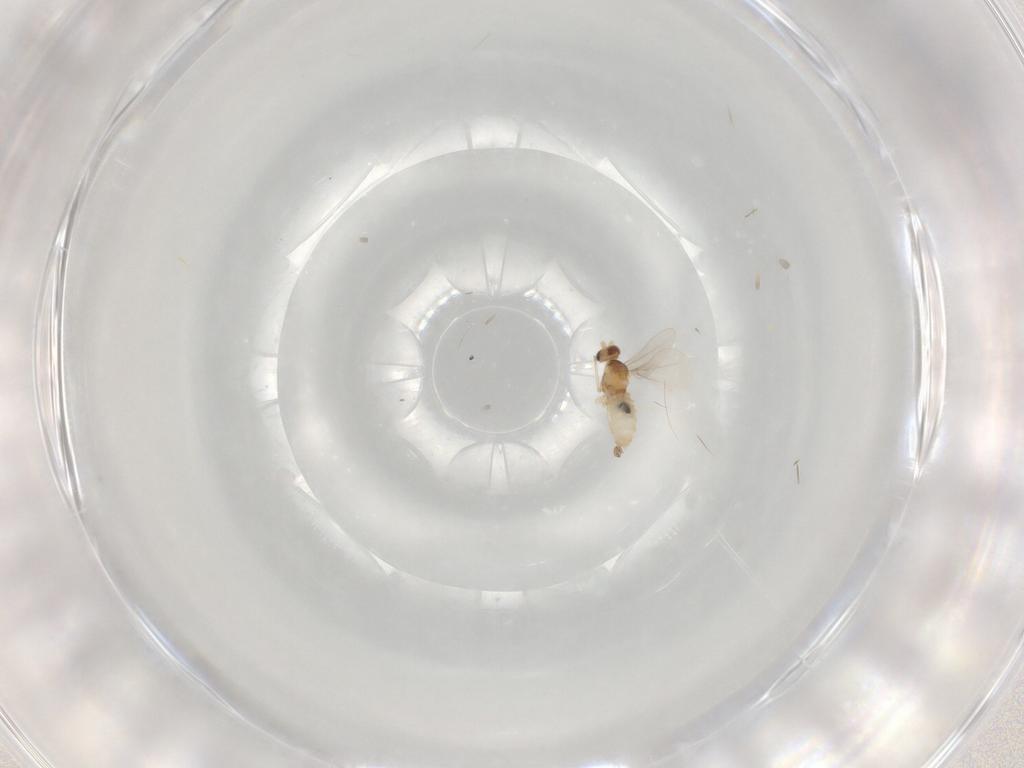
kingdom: Animalia
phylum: Arthropoda
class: Insecta
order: Diptera
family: Cecidomyiidae
